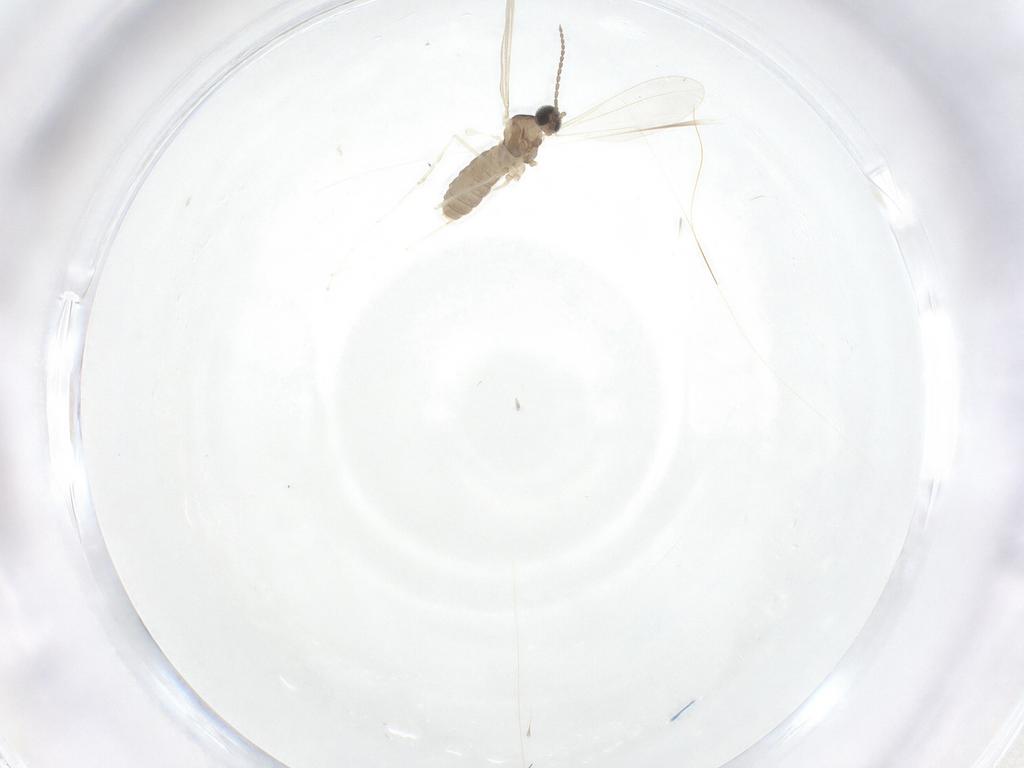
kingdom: Animalia
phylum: Arthropoda
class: Insecta
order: Diptera
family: Cecidomyiidae
